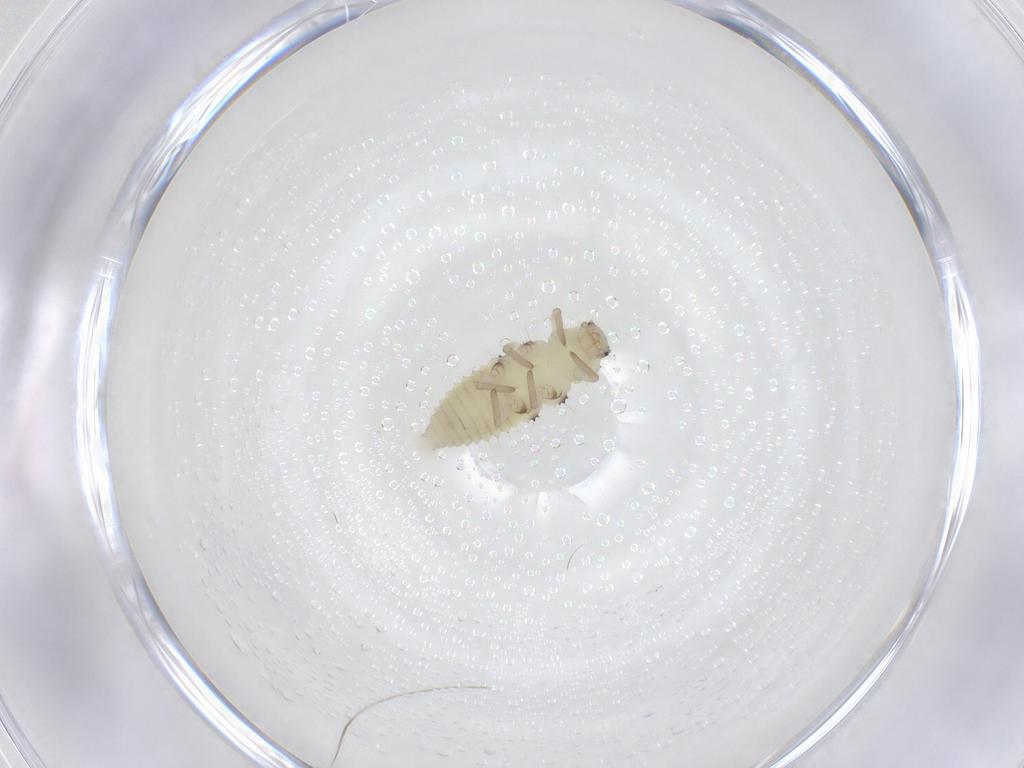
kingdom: Animalia
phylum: Arthropoda
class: Insecta
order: Coleoptera
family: Coccinellidae
